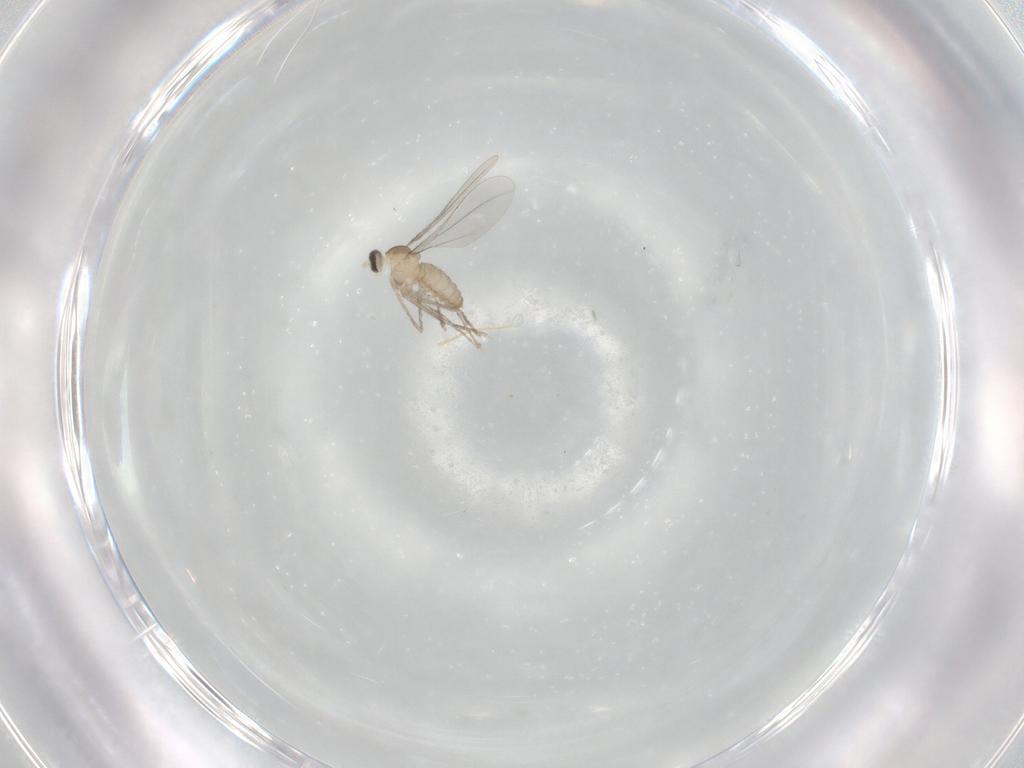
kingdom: Animalia
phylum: Arthropoda
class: Insecta
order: Diptera
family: Cecidomyiidae
